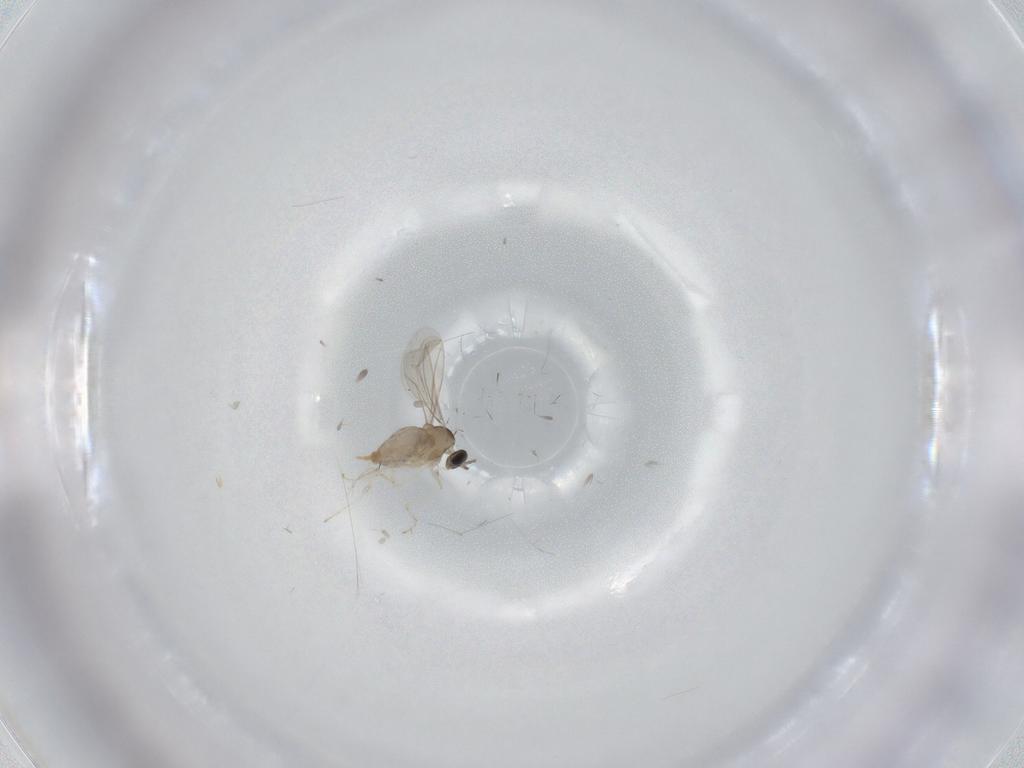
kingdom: Animalia
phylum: Arthropoda
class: Insecta
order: Diptera
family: Cecidomyiidae
